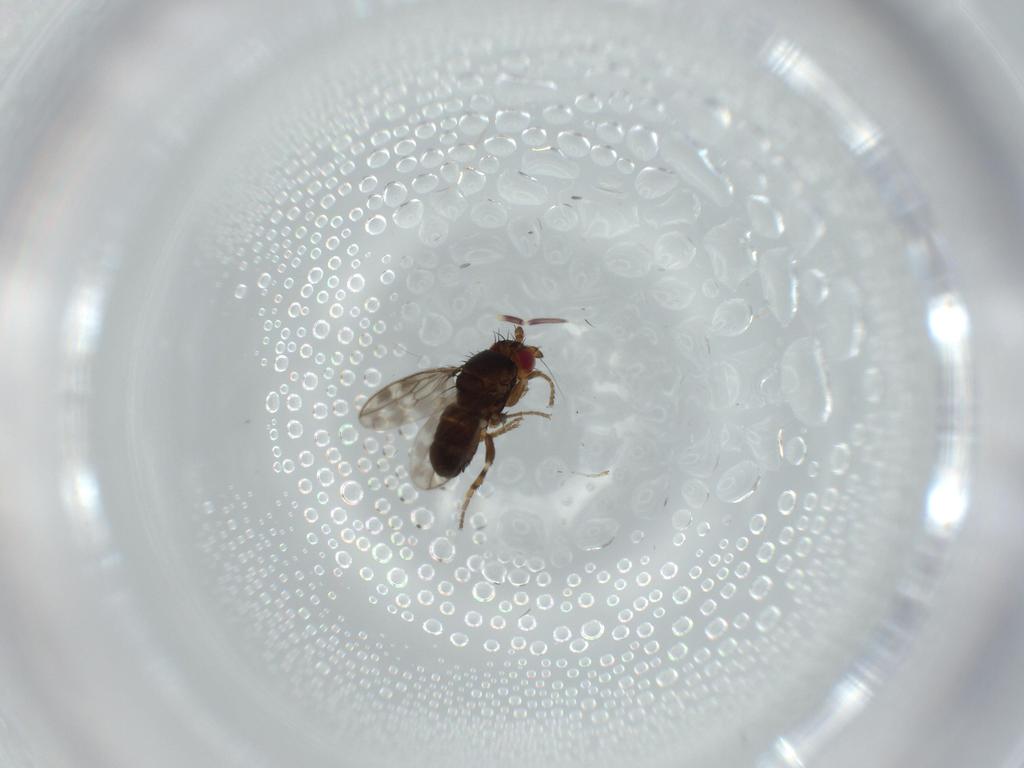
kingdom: Animalia
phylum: Arthropoda
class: Insecta
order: Diptera
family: Sphaeroceridae
